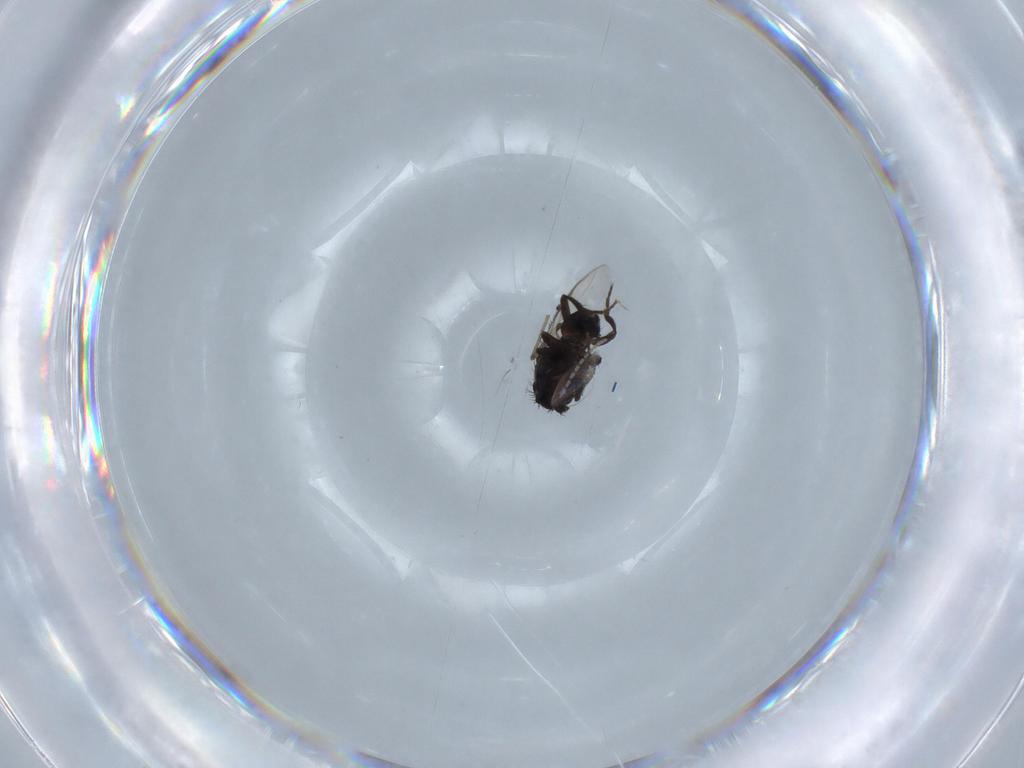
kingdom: Animalia
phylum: Arthropoda
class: Insecta
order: Diptera
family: Sphaeroceridae
